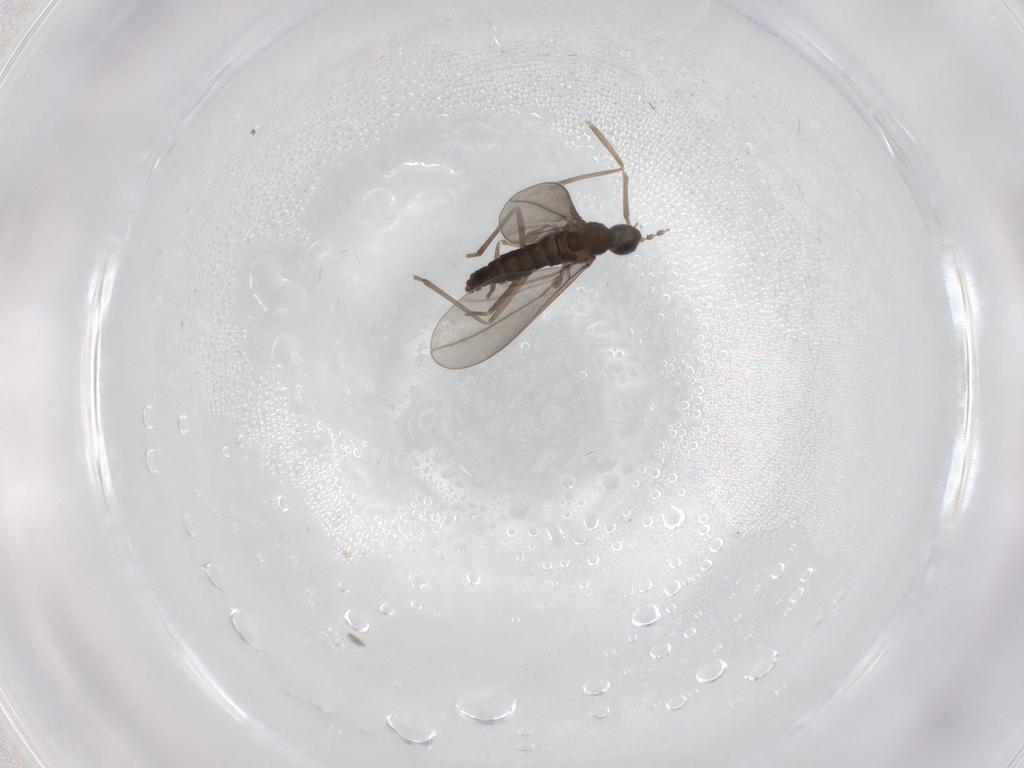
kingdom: Animalia
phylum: Arthropoda
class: Insecta
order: Diptera
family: Cecidomyiidae
